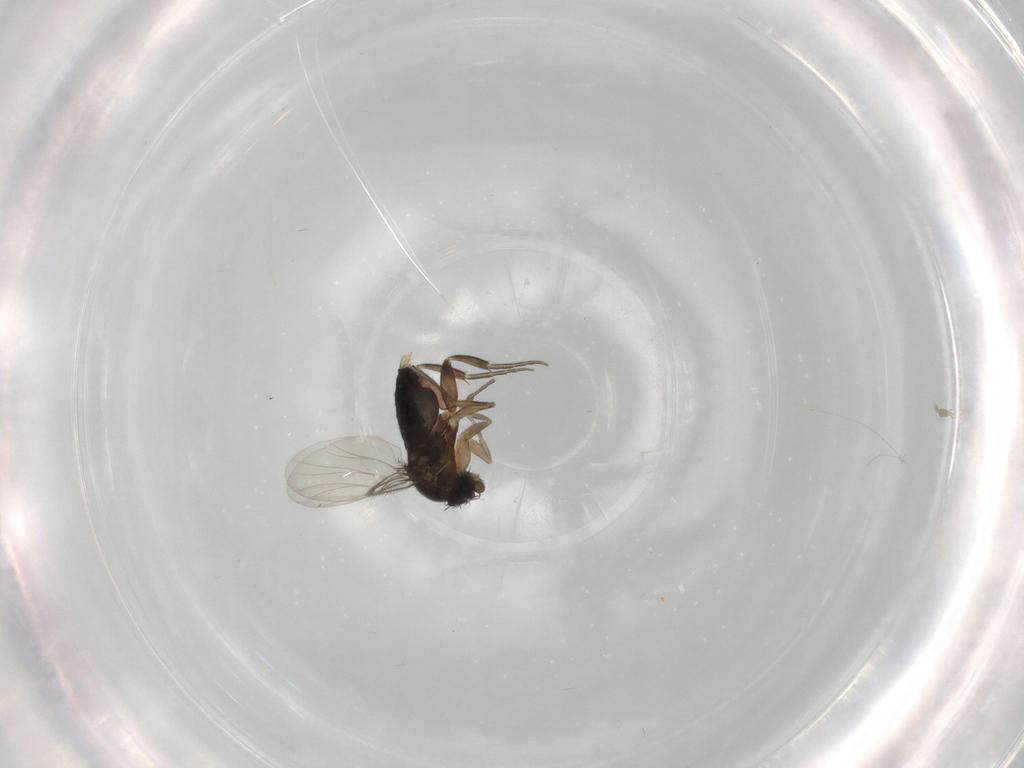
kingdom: Animalia
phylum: Arthropoda
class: Insecta
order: Diptera
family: Phoridae
